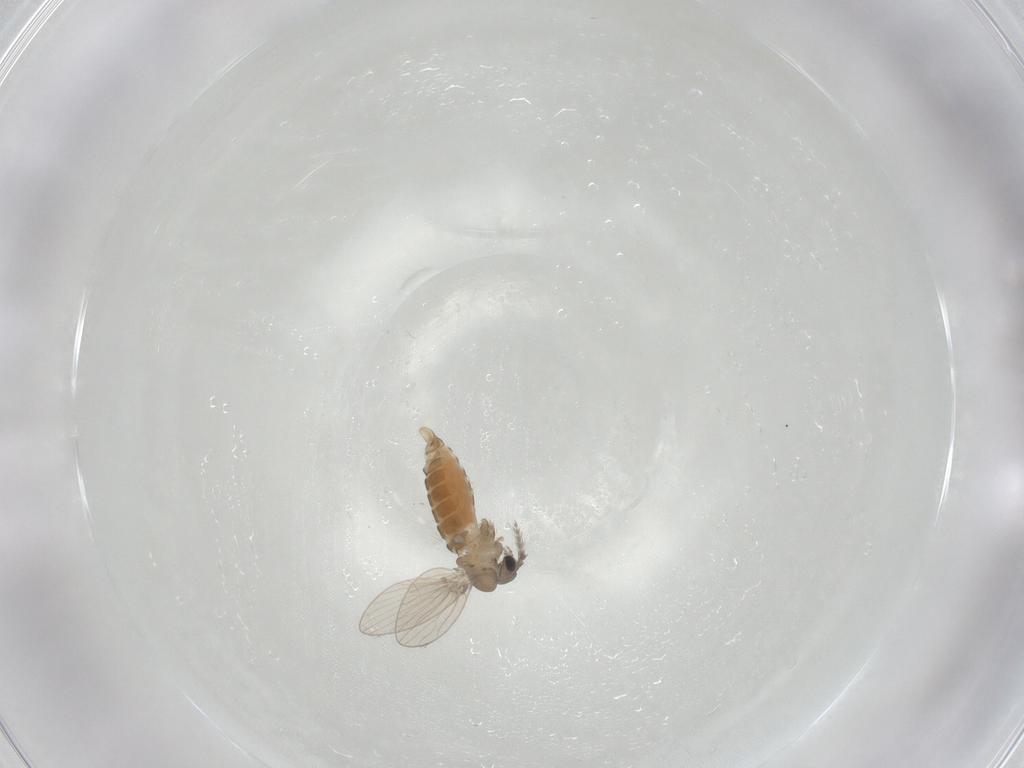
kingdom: Animalia
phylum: Arthropoda
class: Insecta
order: Diptera
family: Psychodidae
